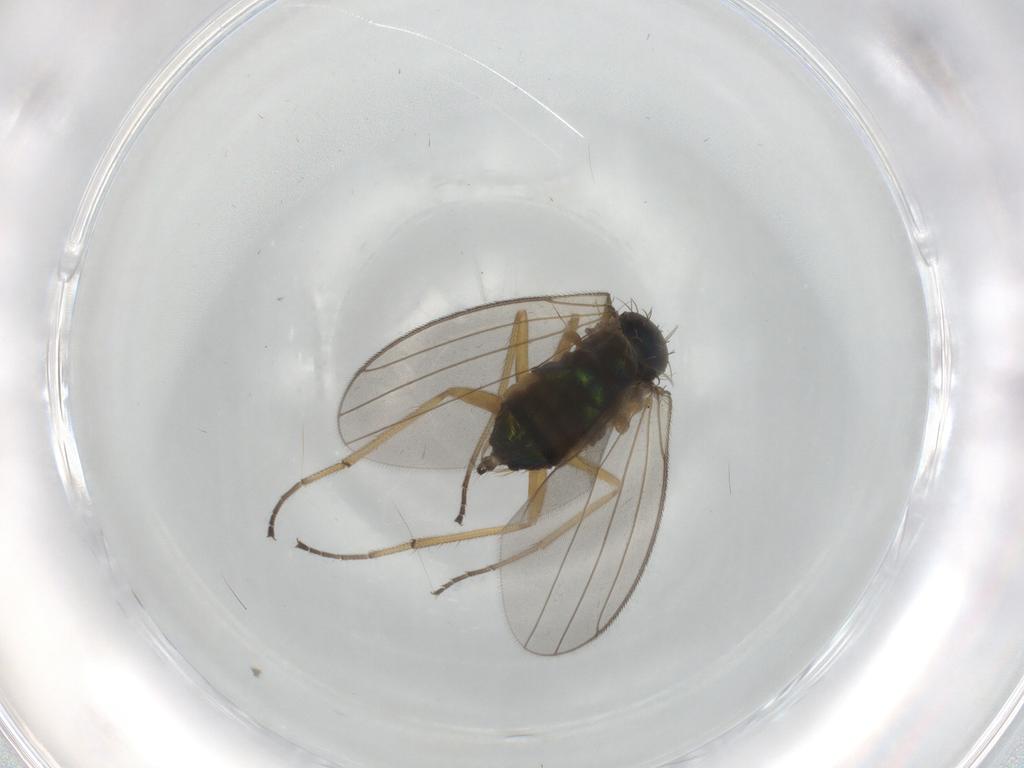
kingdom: Animalia
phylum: Arthropoda
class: Insecta
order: Diptera
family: Dolichopodidae
